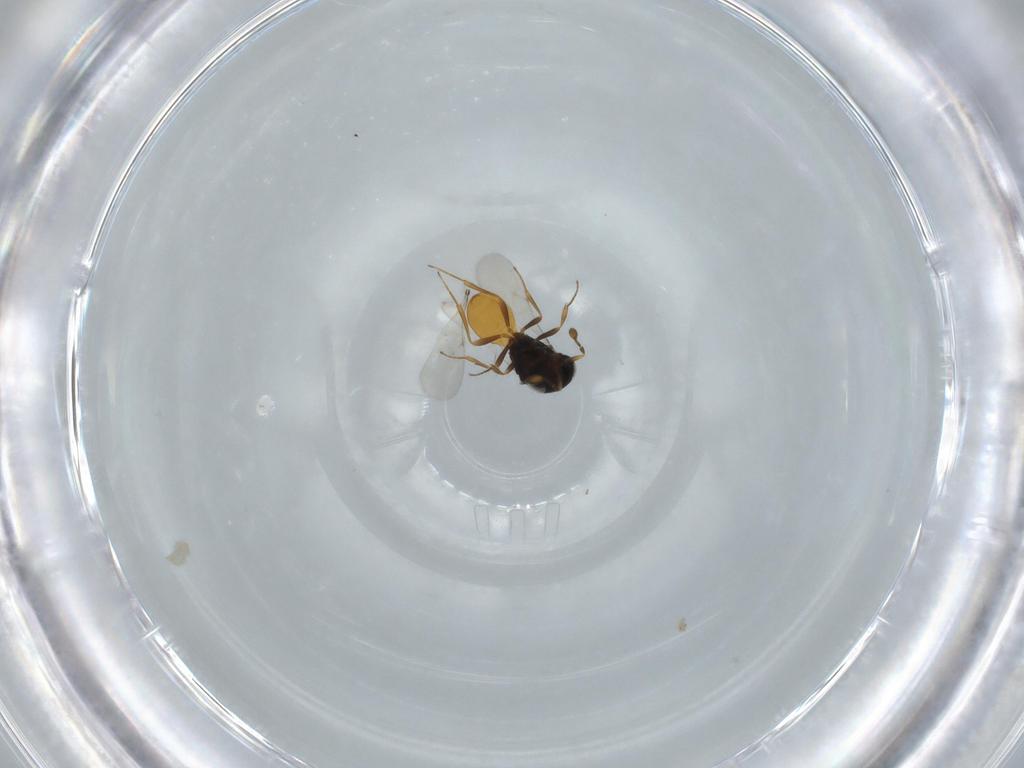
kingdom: Animalia
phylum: Arthropoda
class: Insecta
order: Hymenoptera
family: Scelionidae
